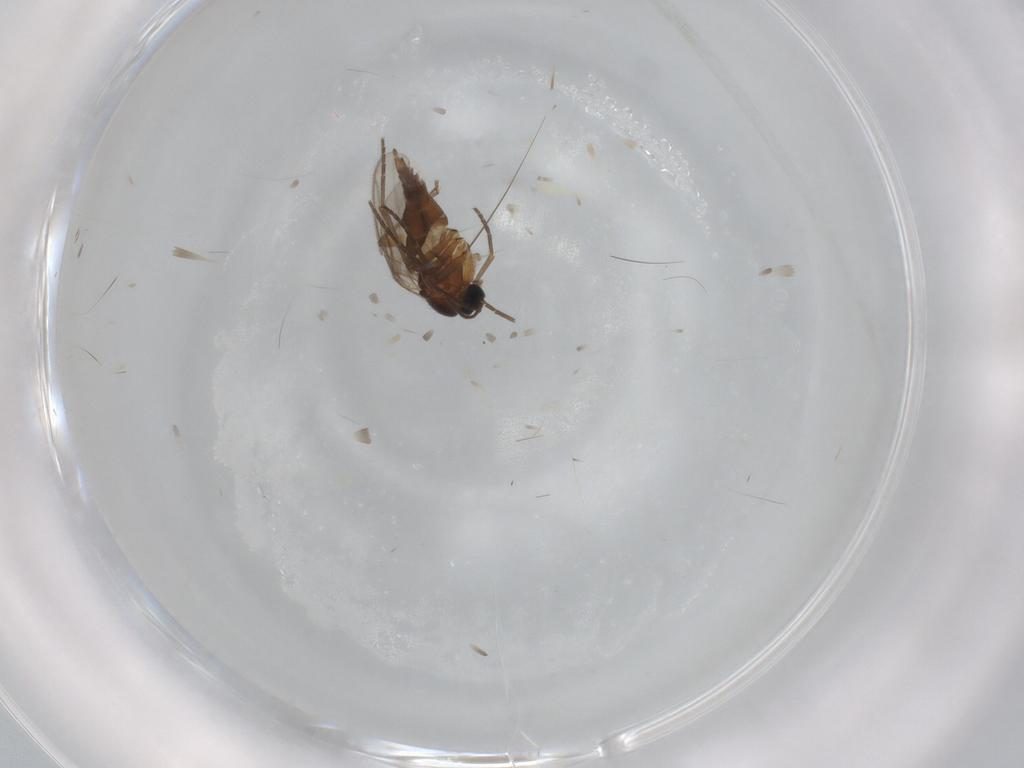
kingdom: Animalia
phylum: Arthropoda
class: Insecta
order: Diptera
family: Sciaridae
